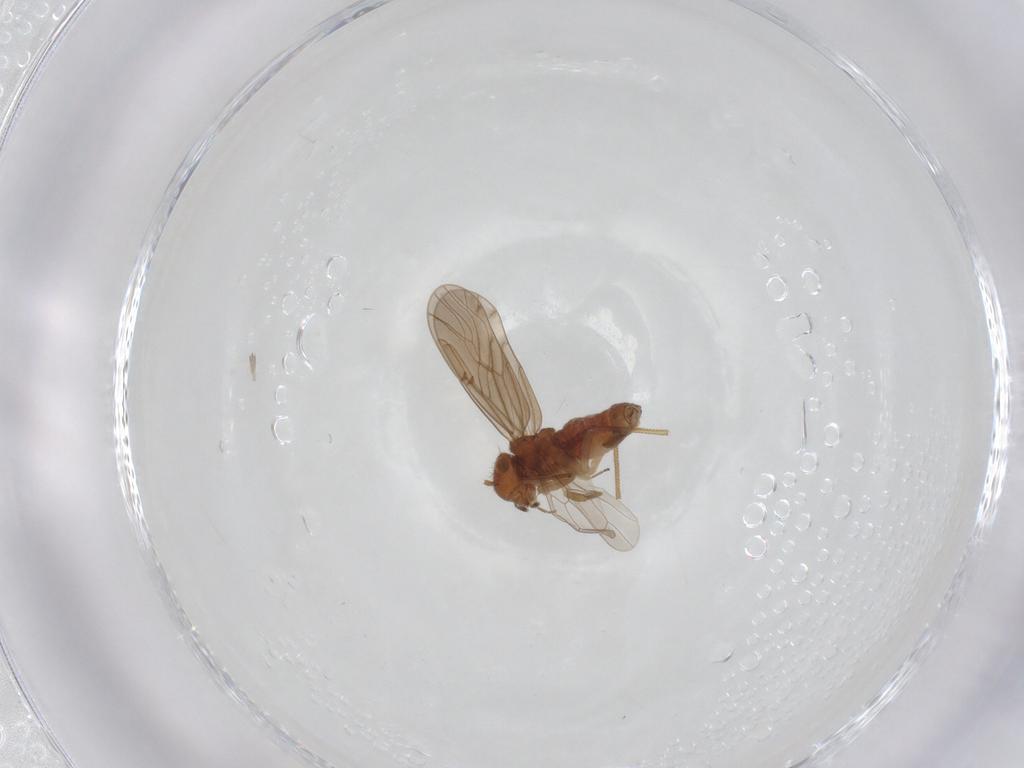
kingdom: Animalia
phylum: Arthropoda
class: Insecta
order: Psocodea
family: Ectopsocidae
